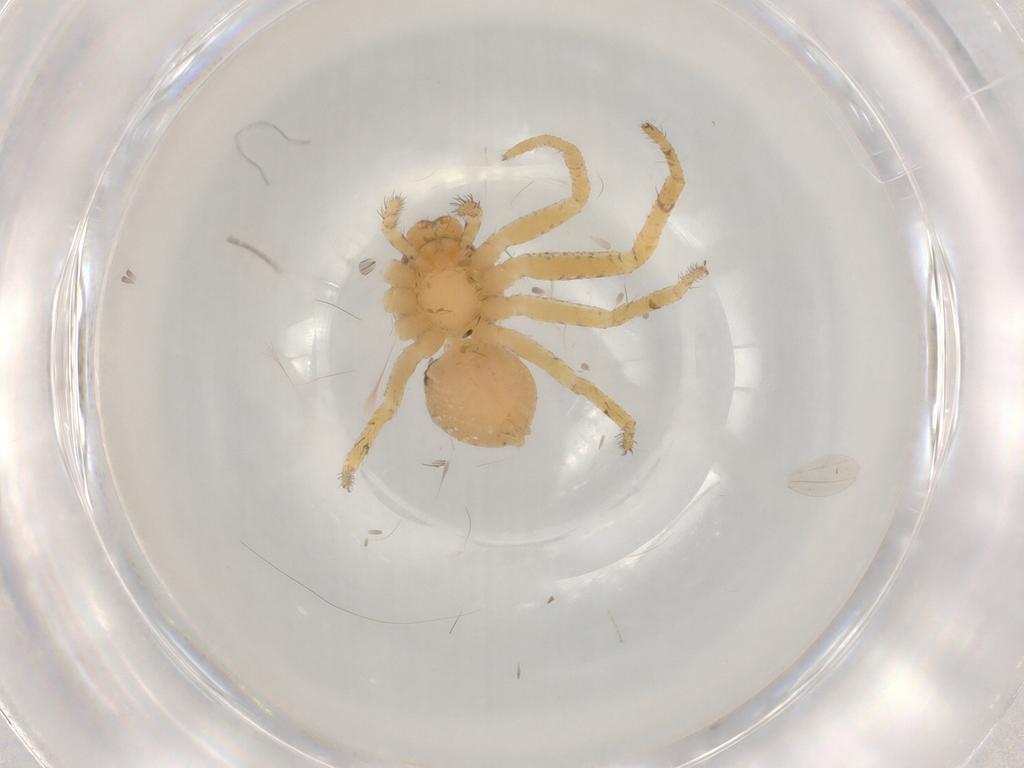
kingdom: Animalia
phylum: Arthropoda
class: Arachnida
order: Araneae
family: Thomisidae
